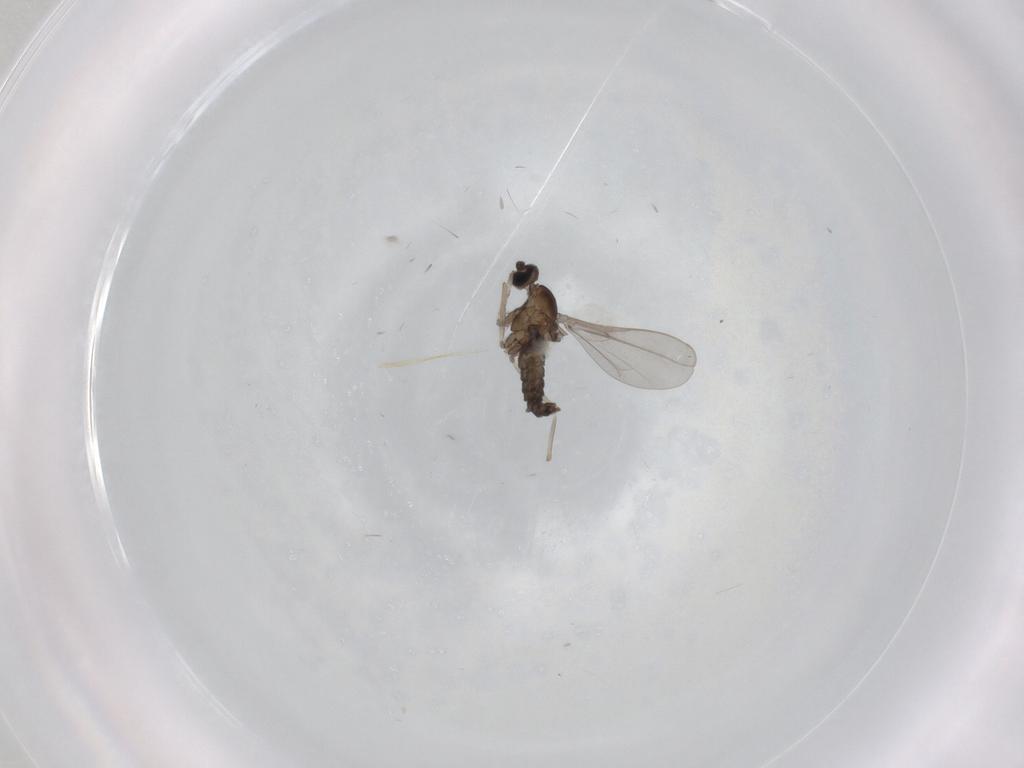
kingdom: Animalia
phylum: Arthropoda
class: Insecta
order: Diptera
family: Cecidomyiidae
